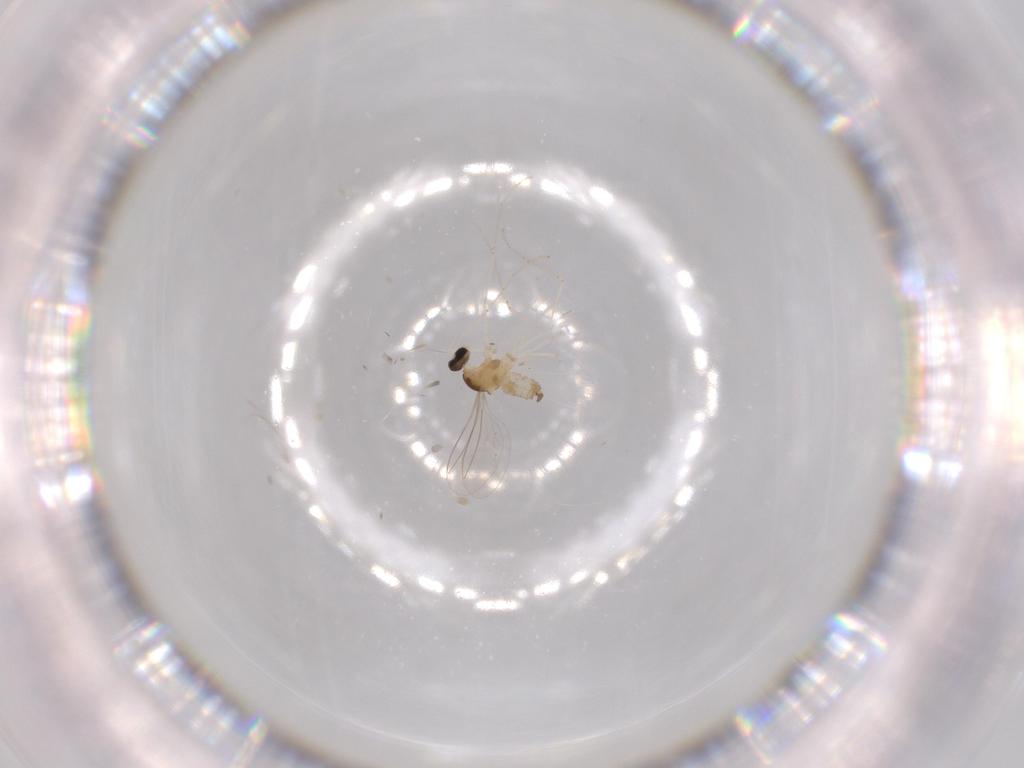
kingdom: Animalia
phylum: Arthropoda
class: Insecta
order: Diptera
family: Cecidomyiidae
